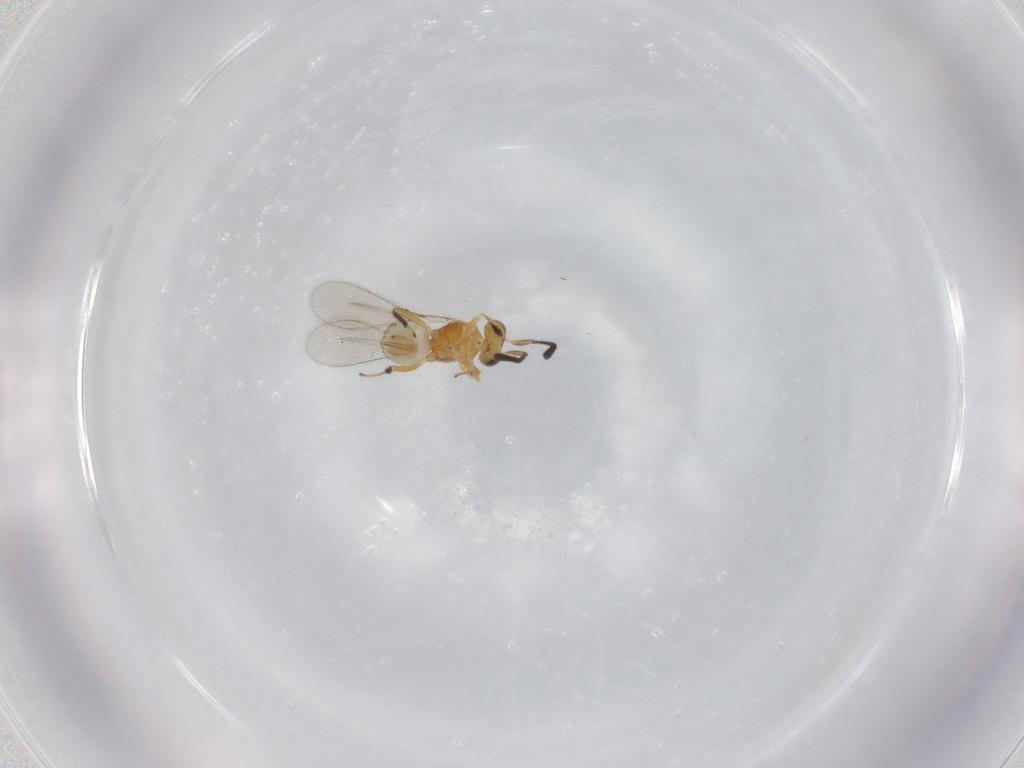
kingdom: Animalia
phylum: Arthropoda
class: Insecta
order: Hymenoptera
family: Mymaridae
